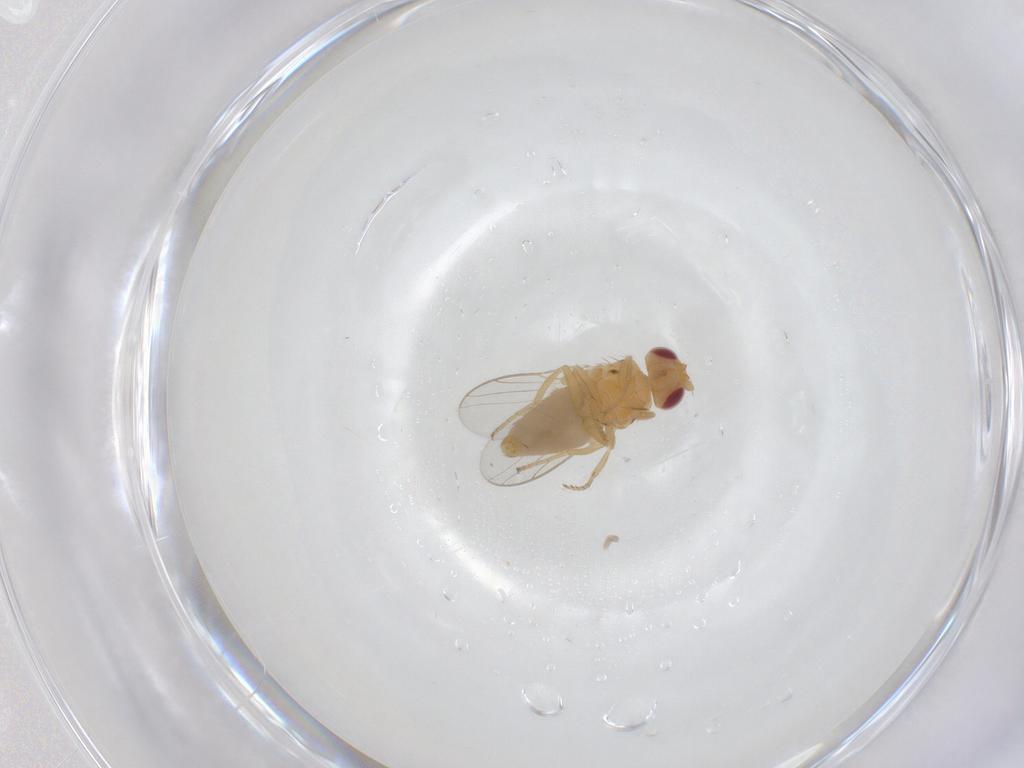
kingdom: Animalia
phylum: Arthropoda
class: Insecta
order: Diptera
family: Chloropidae
